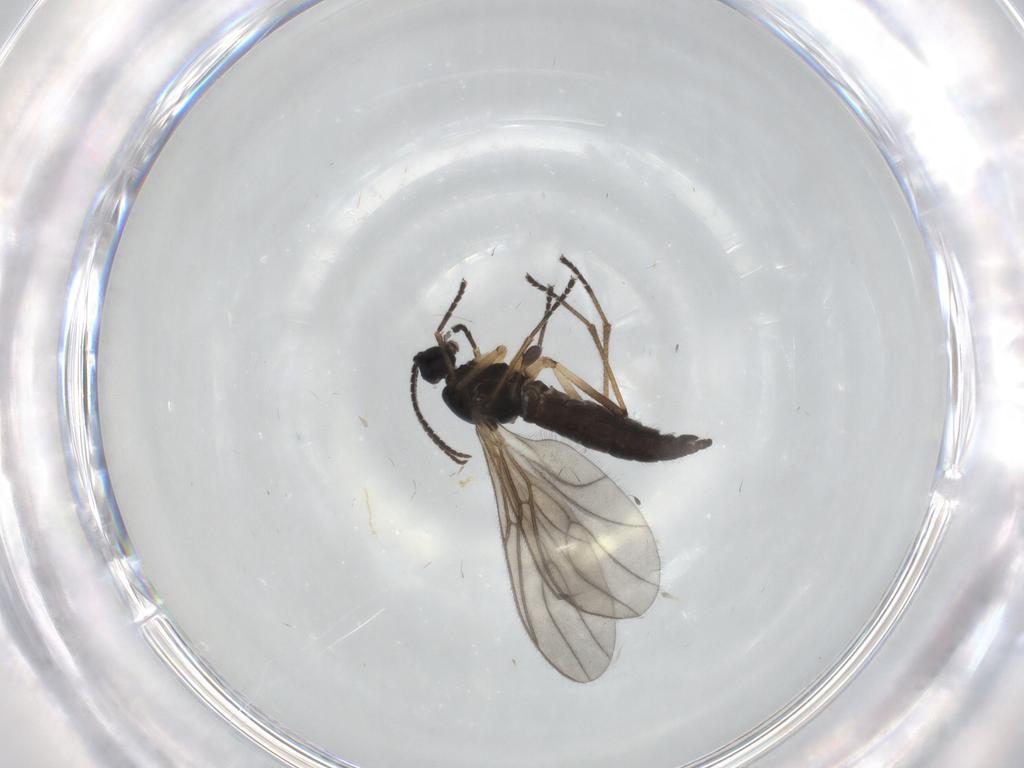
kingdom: Animalia
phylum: Arthropoda
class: Insecta
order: Diptera
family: Sciaridae
